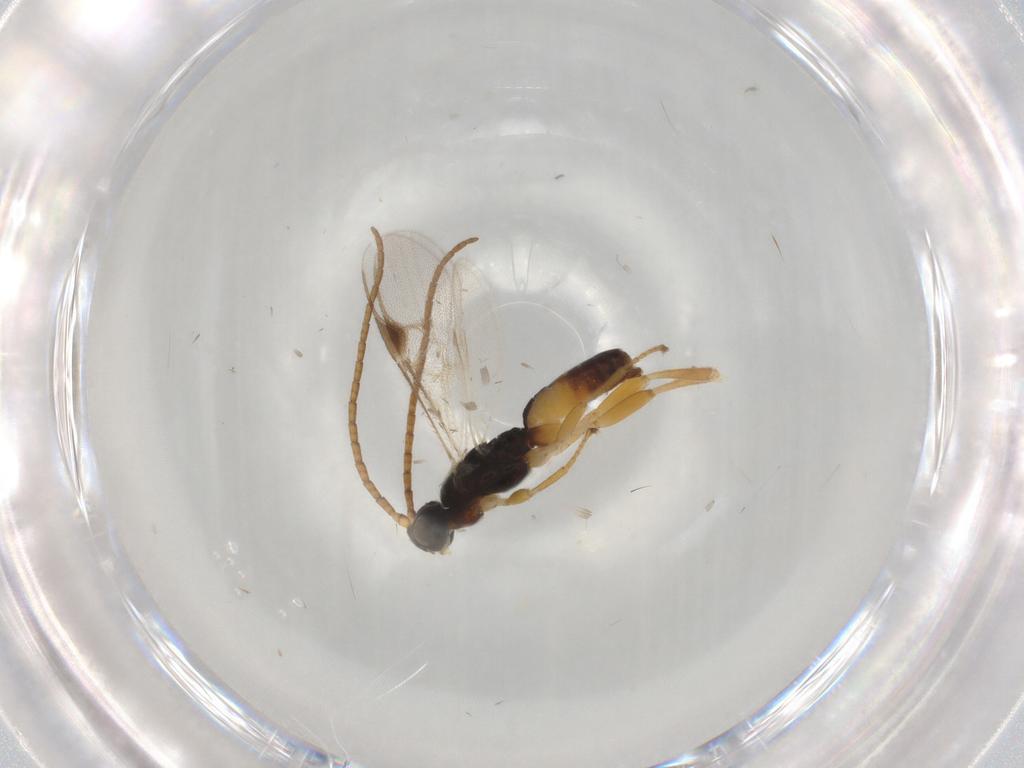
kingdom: Animalia
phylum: Arthropoda
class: Insecta
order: Hymenoptera
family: Braconidae
